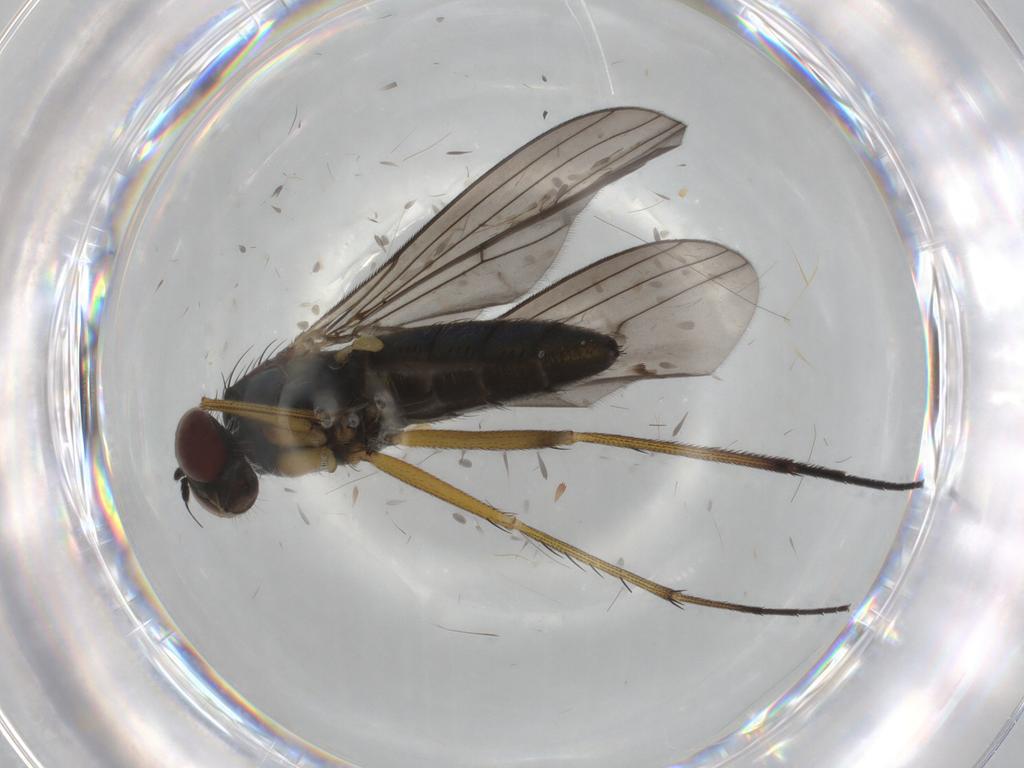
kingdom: Animalia
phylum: Arthropoda
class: Insecta
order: Diptera
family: Dolichopodidae
